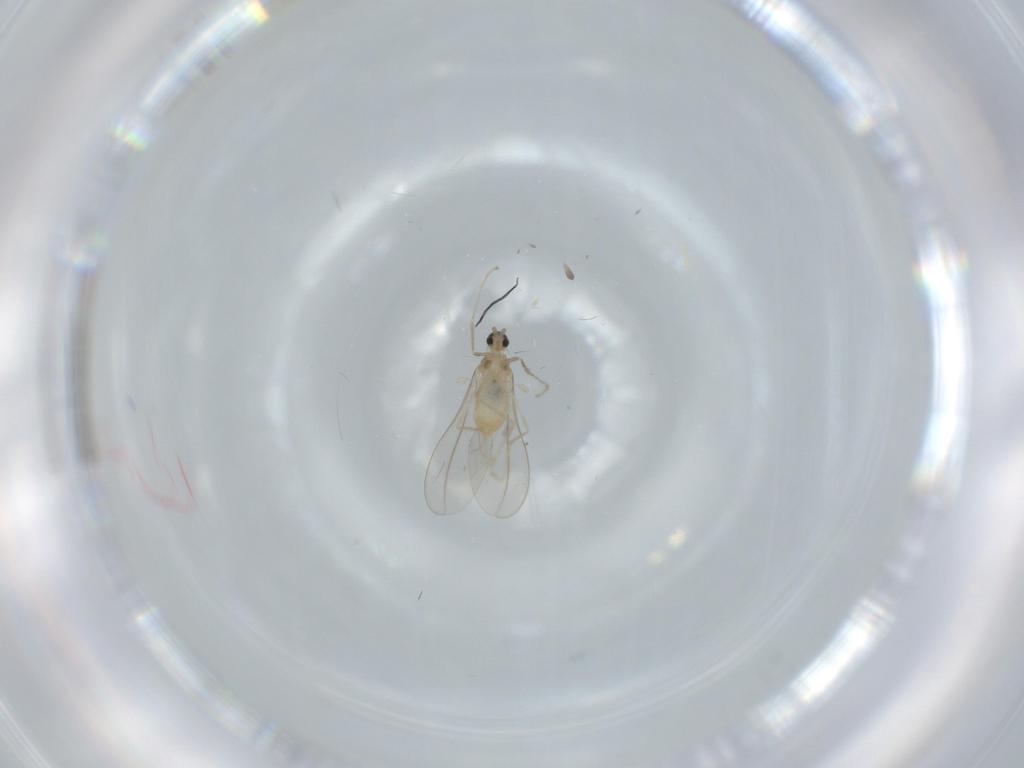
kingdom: Animalia
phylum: Arthropoda
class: Insecta
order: Diptera
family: Cecidomyiidae
